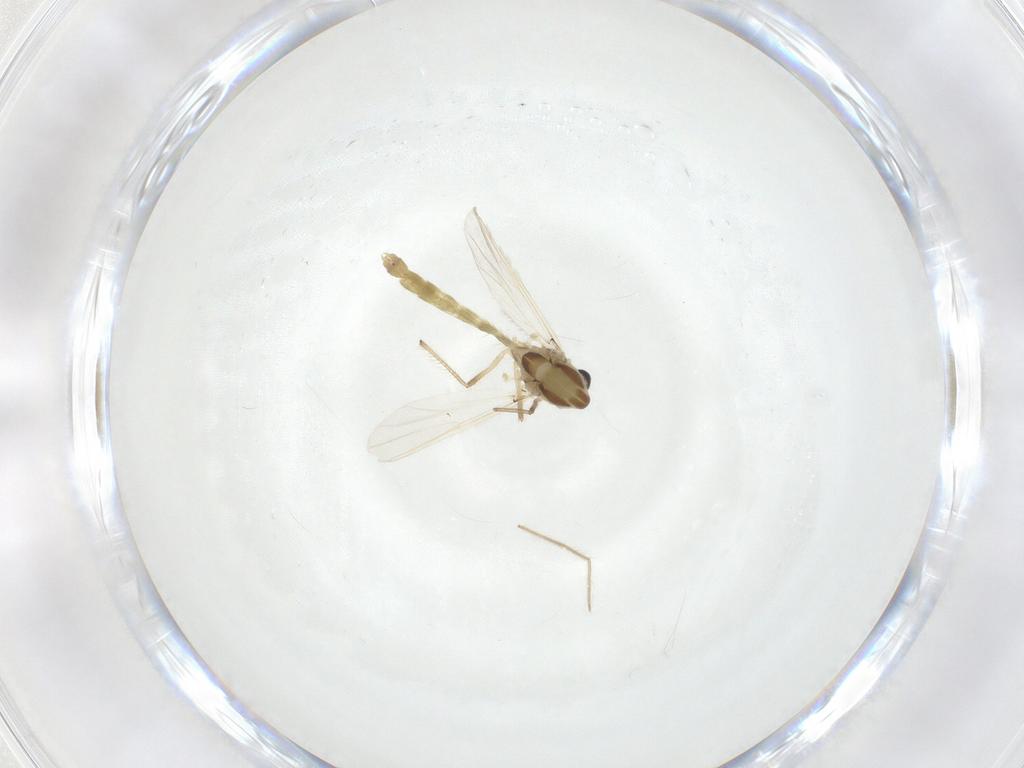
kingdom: Animalia
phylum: Arthropoda
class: Insecta
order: Diptera
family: Chironomidae
